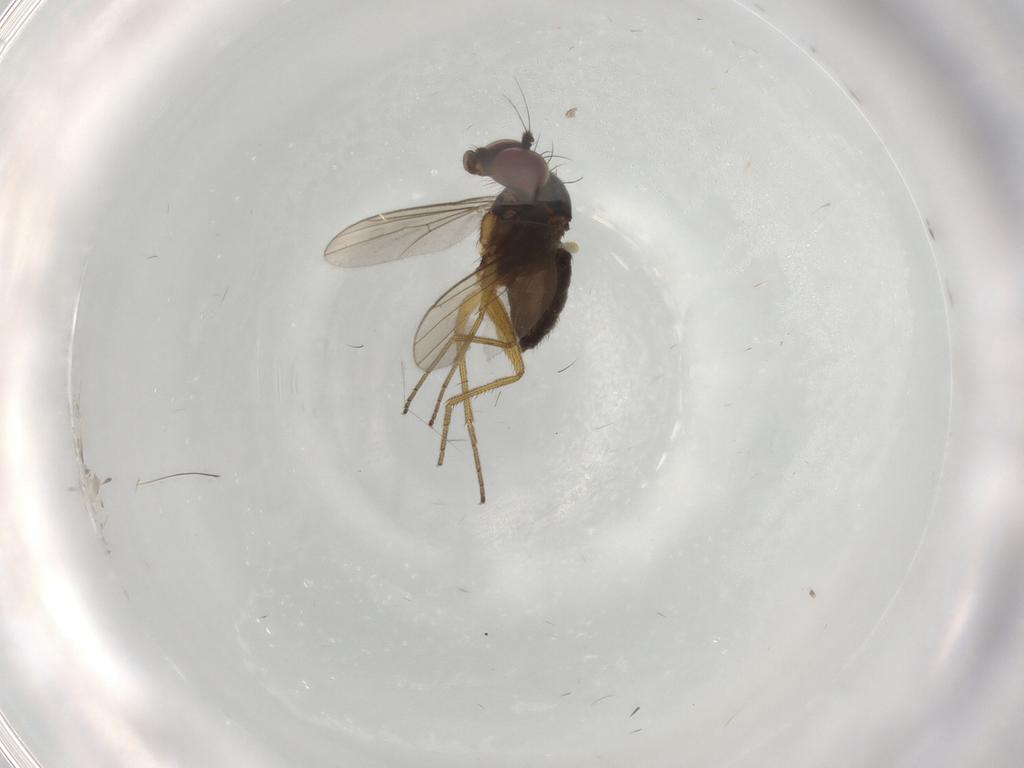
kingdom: Animalia
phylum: Arthropoda
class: Insecta
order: Diptera
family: Dolichopodidae
